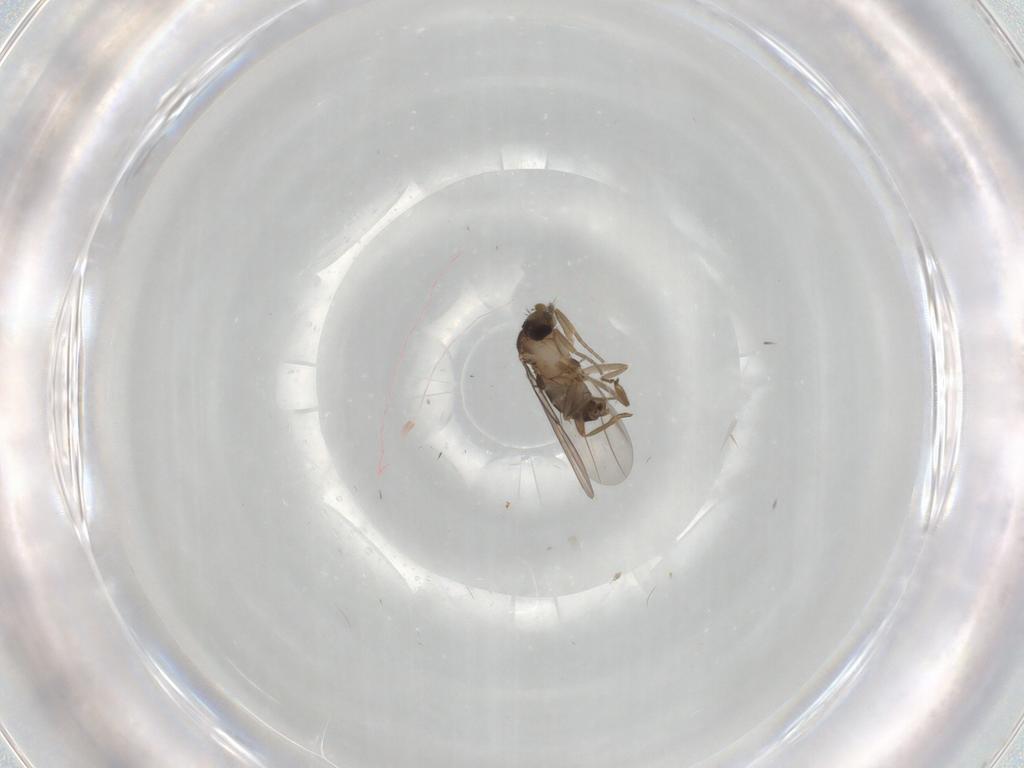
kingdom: Animalia
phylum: Arthropoda
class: Insecta
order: Diptera
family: Phoridae
